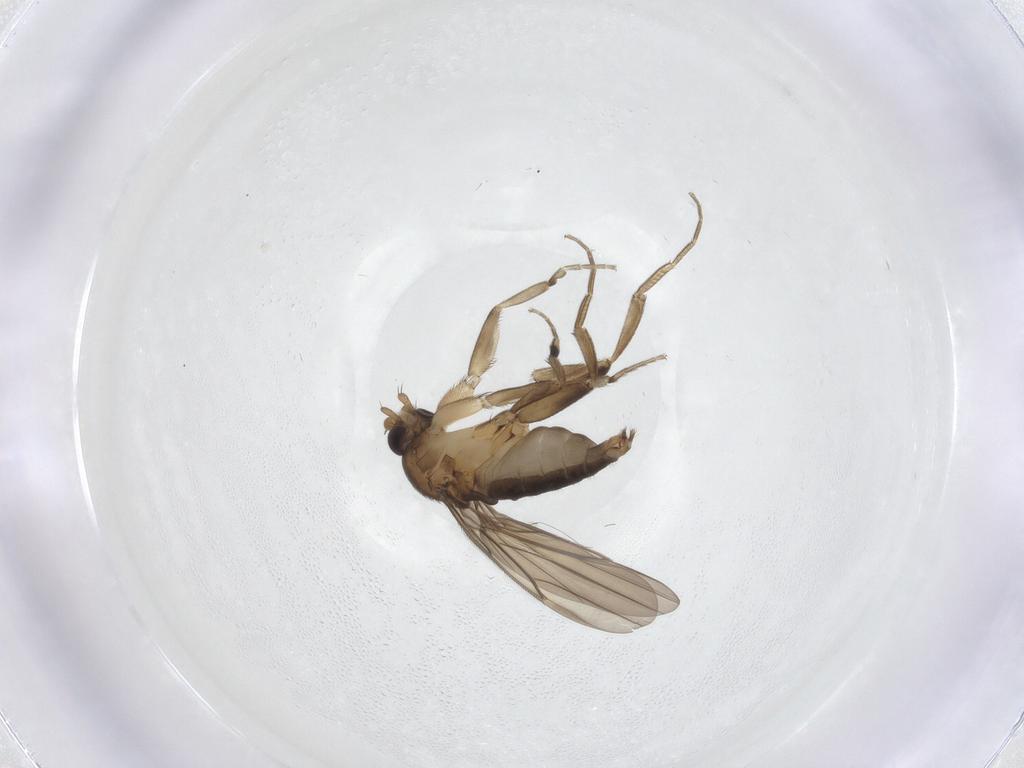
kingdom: Animalia
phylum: Arthropoda
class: Insecta
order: Diptera
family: Phoridae
